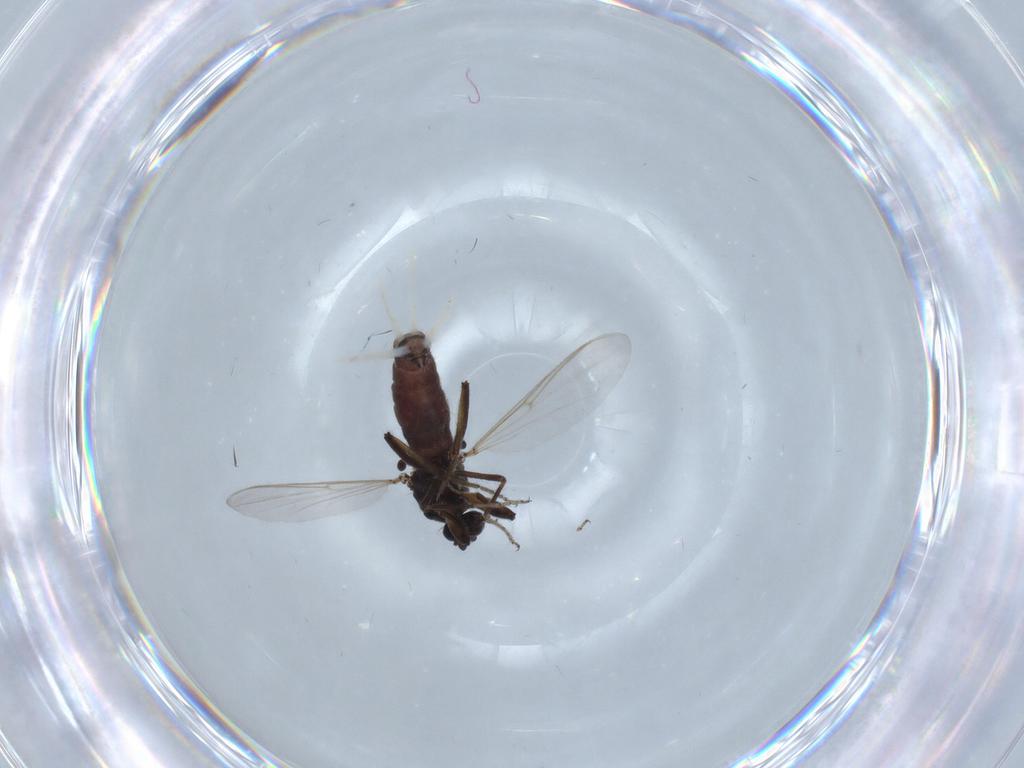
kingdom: Animalia
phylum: Arthropoda
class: Insecta
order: Diptera
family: Ceratopogonidae
